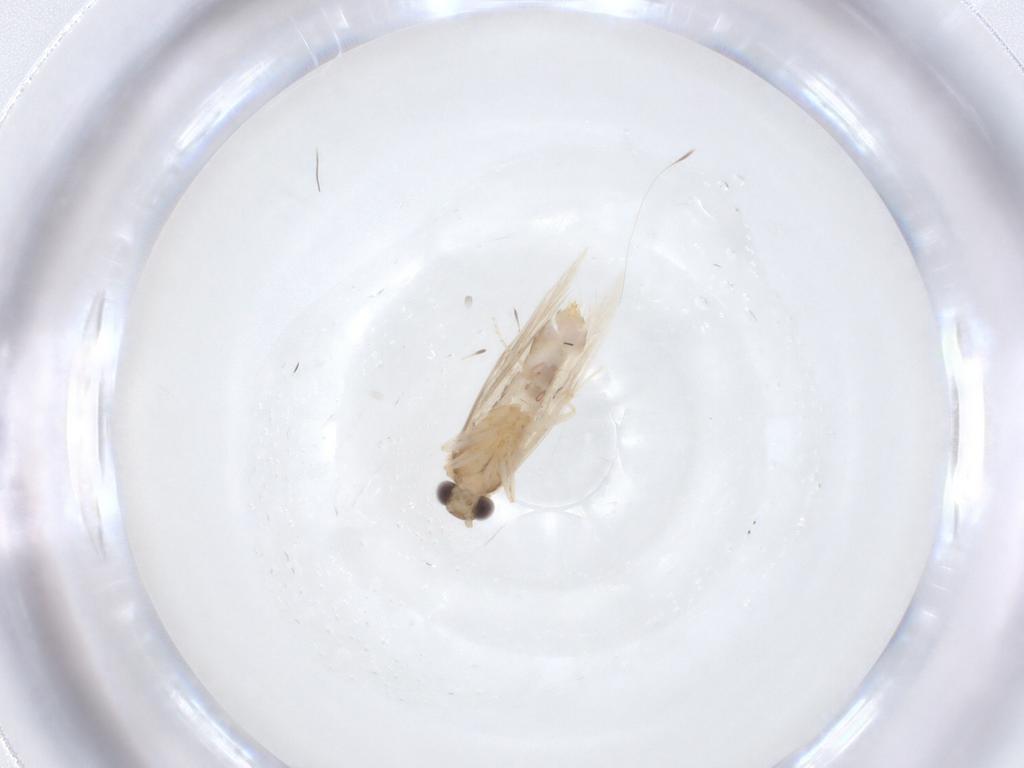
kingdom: Animalia
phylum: Arthropoda
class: Insecta
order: Trichoptera
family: Hydroptilidae
